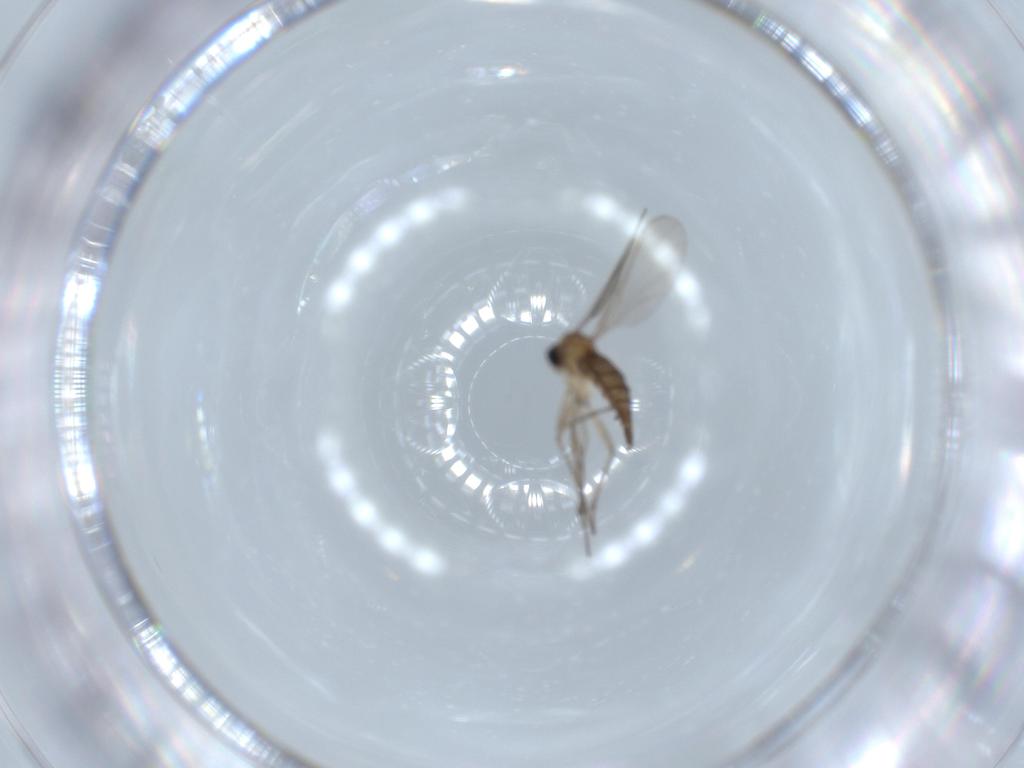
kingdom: Animalia
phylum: Arthropoda
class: Insecta
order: Diptera
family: Sciaridae
